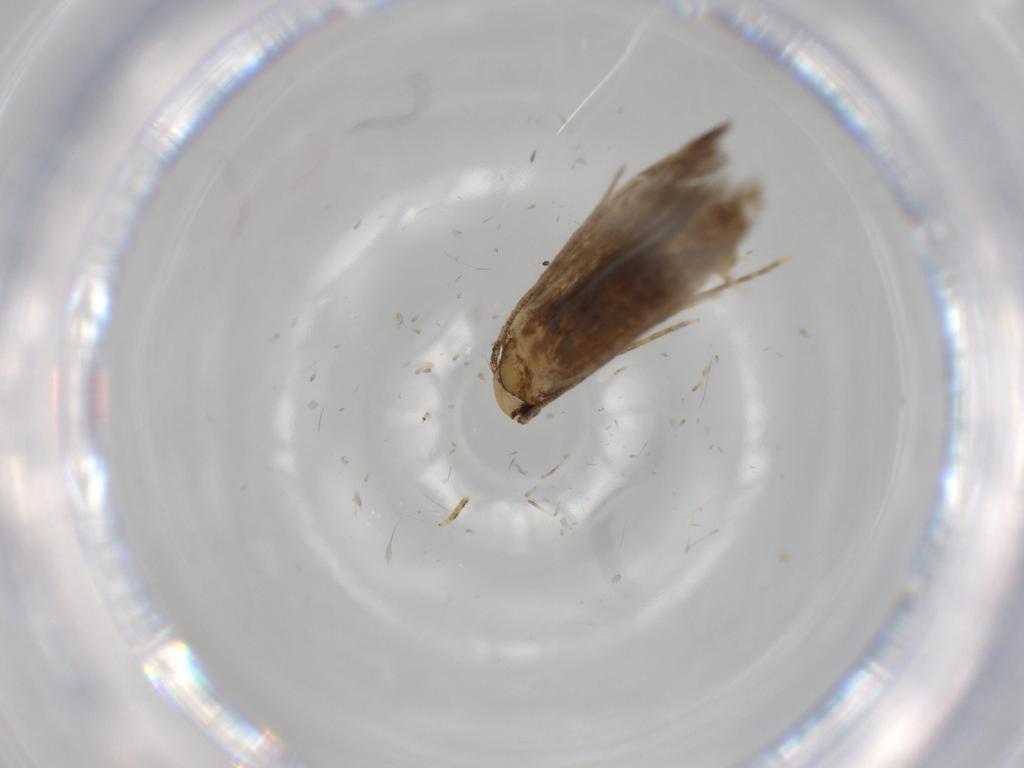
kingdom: Animalia
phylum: Arthropoda
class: Insecta
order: Lepidoptera
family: Tineidae
